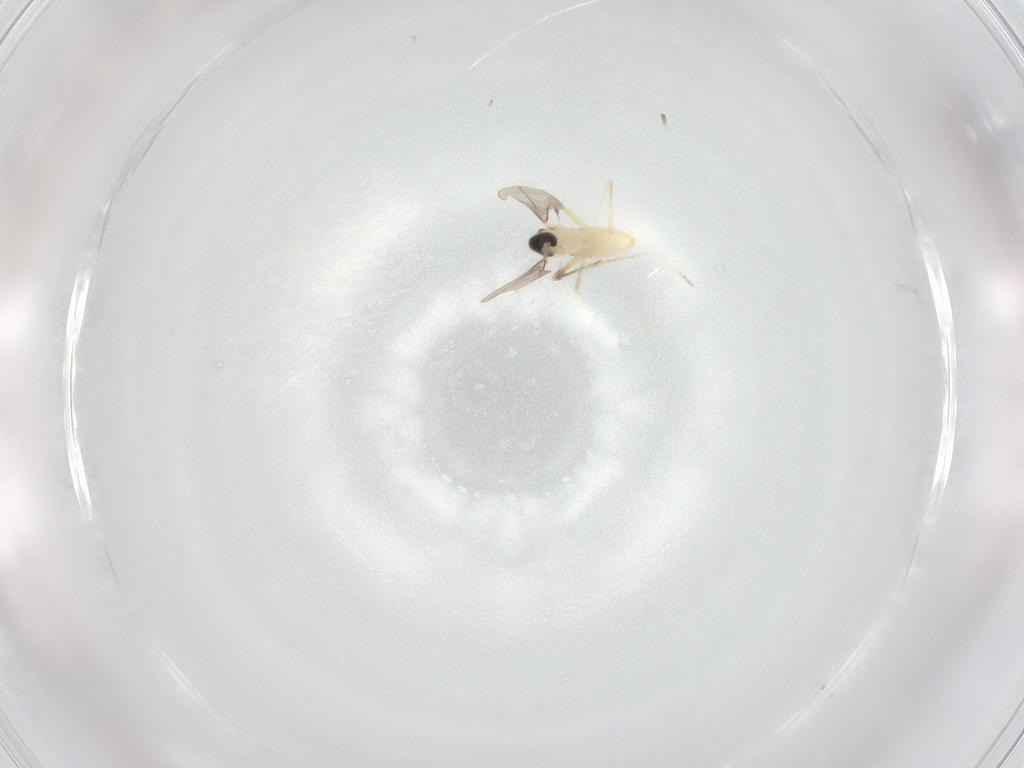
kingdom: Animalia
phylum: Arthropoda
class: Insecta
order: Diptera
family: Cecidomyiidae
